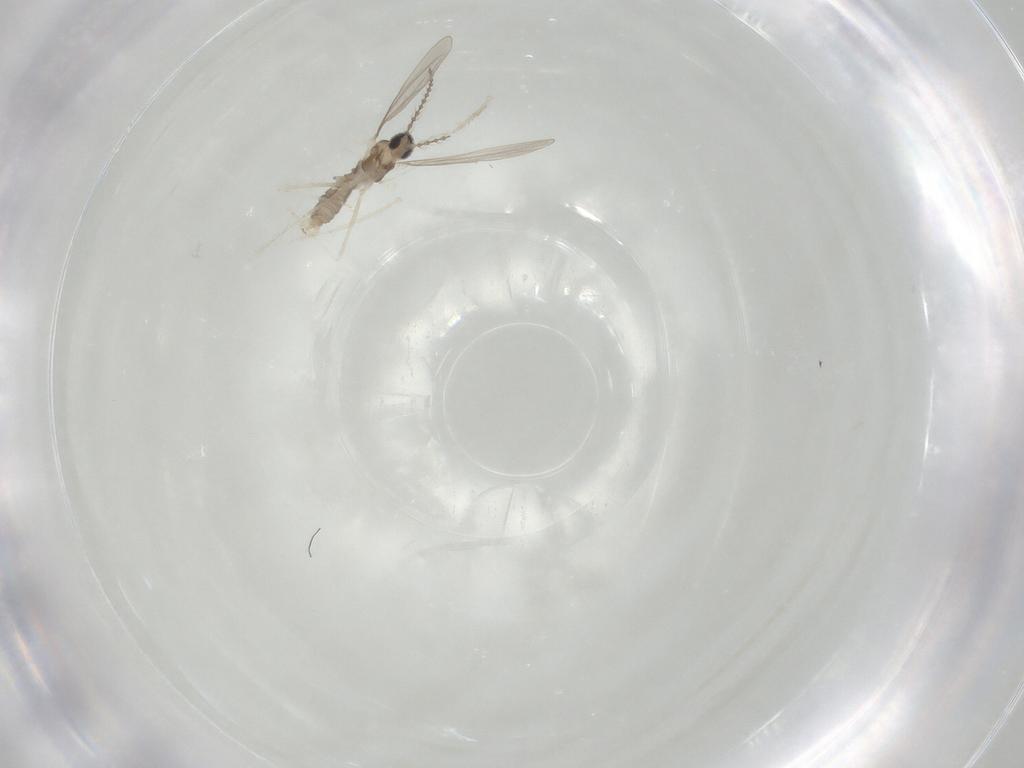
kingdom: Animalia
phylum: Arthropoda
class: Insecta
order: Diptera
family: Cecidomyiidae
